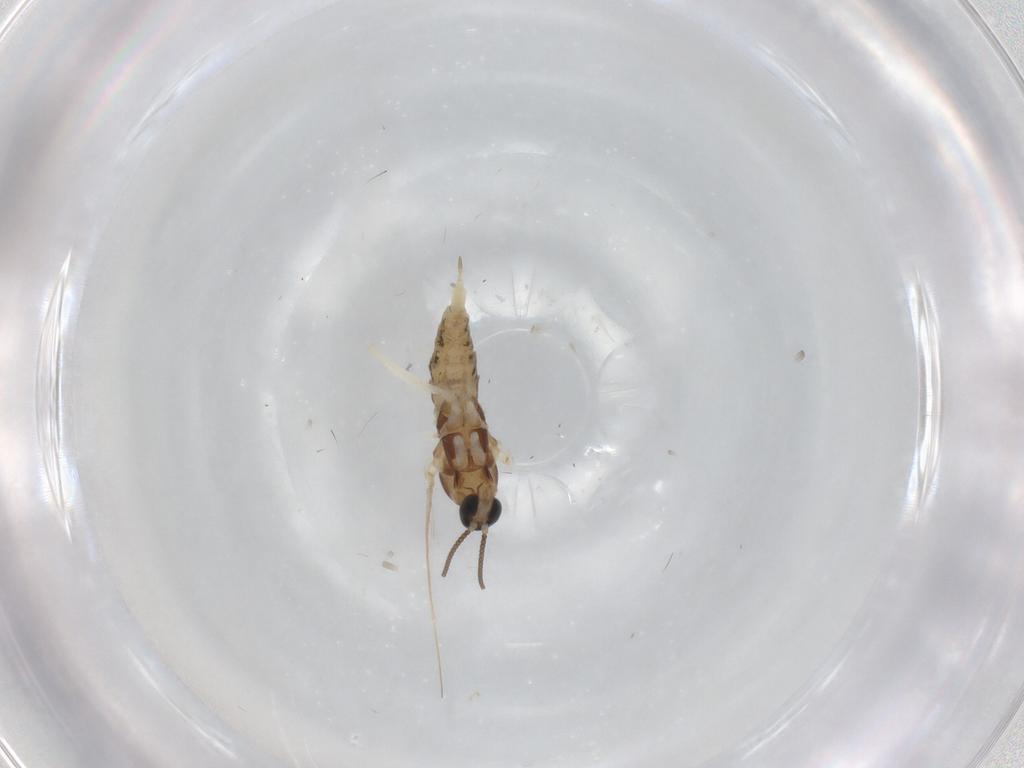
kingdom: Animalia
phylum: Arthropoda
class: Insecta
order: Diptera
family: Cecidomyiidae
